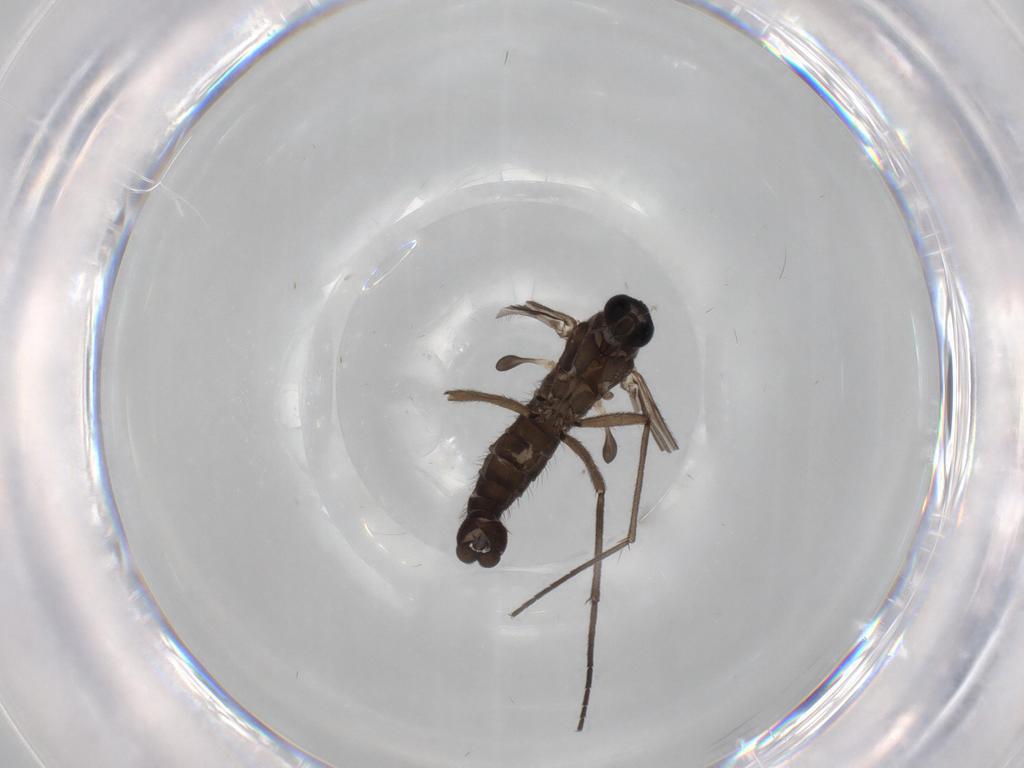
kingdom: Animalia
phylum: Arthropoda
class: Insecta
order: Diptera
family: Sciaridae
